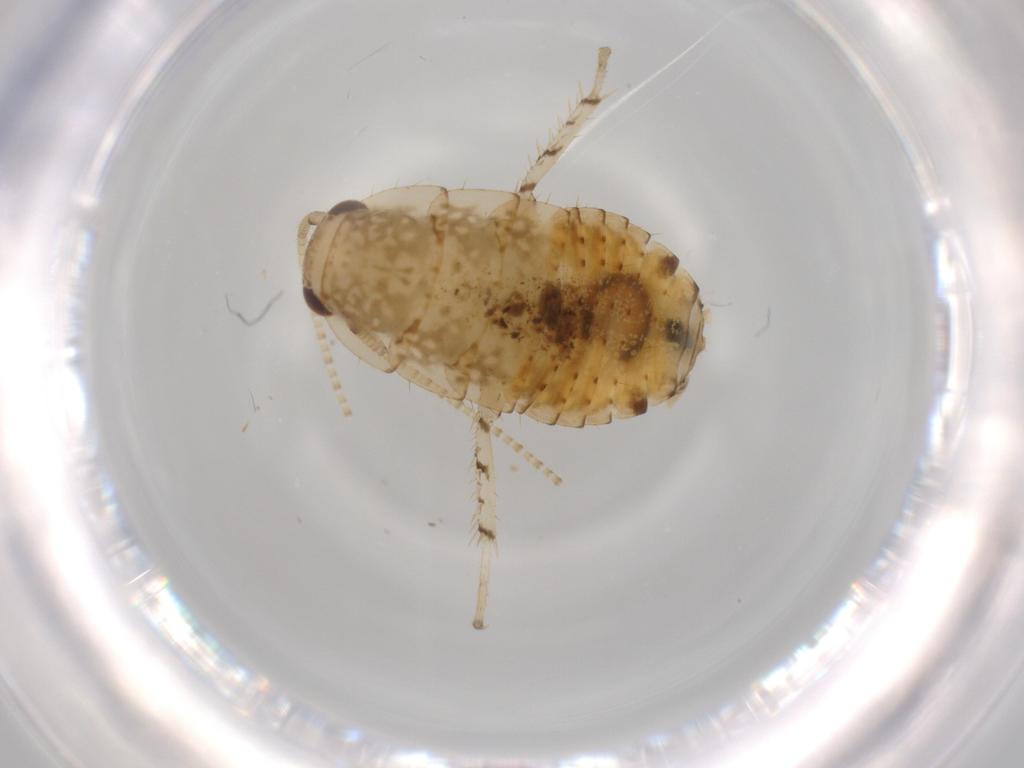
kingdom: Animalia
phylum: Arthropoda
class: Insecta
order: Blattodea
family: Ectobiidae
